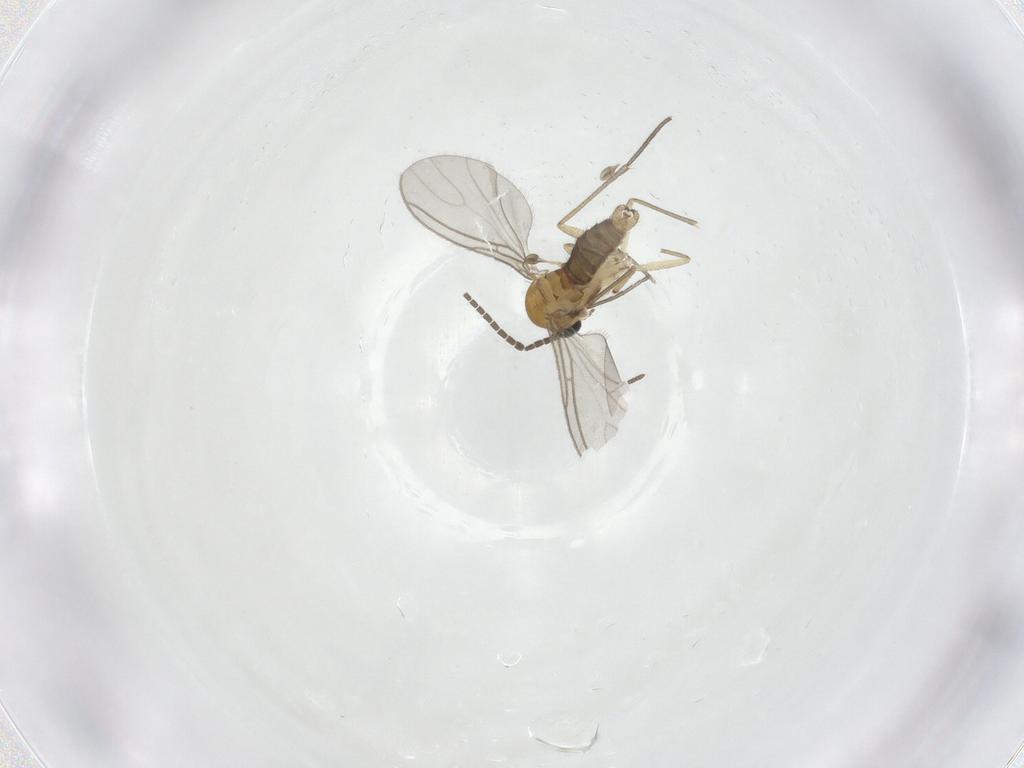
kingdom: Animalia
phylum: Arthropoda
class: Insecta
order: Diptera
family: Sciaridae
